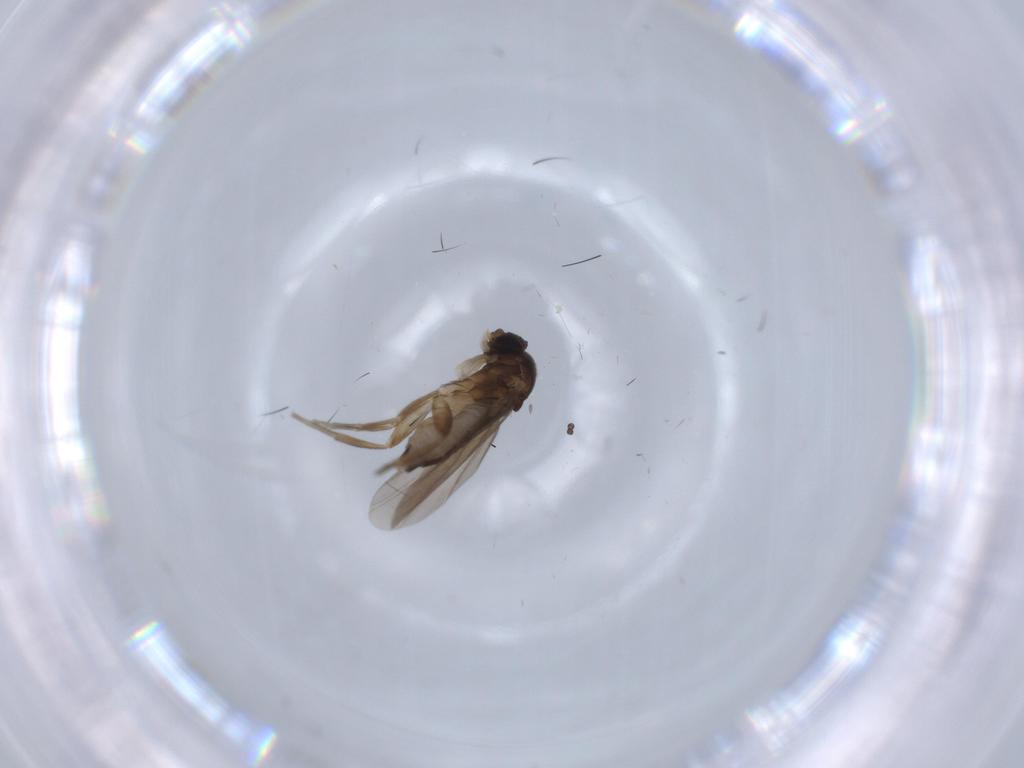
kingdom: Animalia
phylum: Arthropoda
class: Insecta
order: Diptera
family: Phoridae
